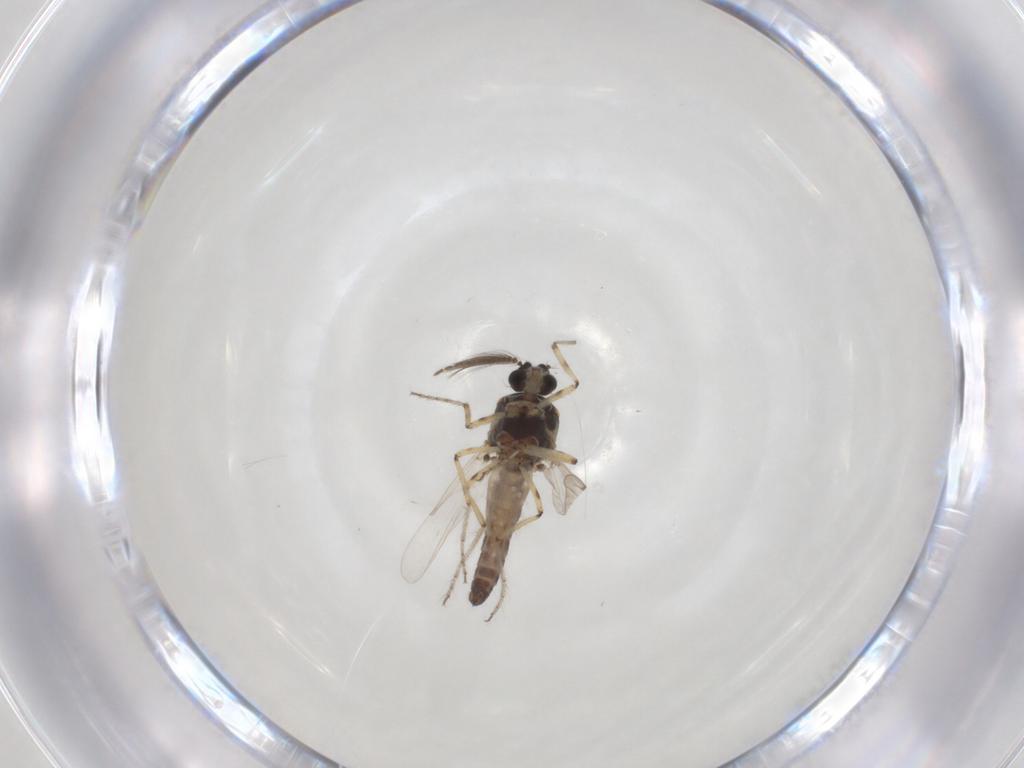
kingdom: Animalia
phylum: Arthropoda
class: Insecta
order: Diptera
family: Ceratopogonidae
